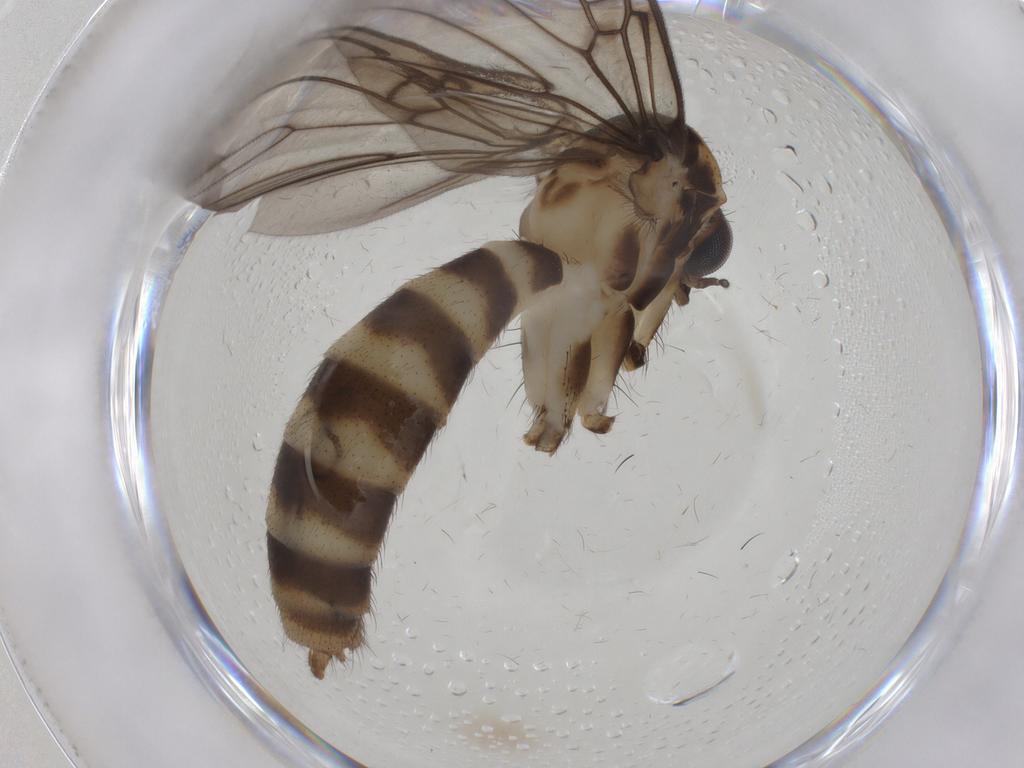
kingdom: Animalia
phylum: Arthropoda
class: Insecta
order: Diptera
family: Mycetophilidae
